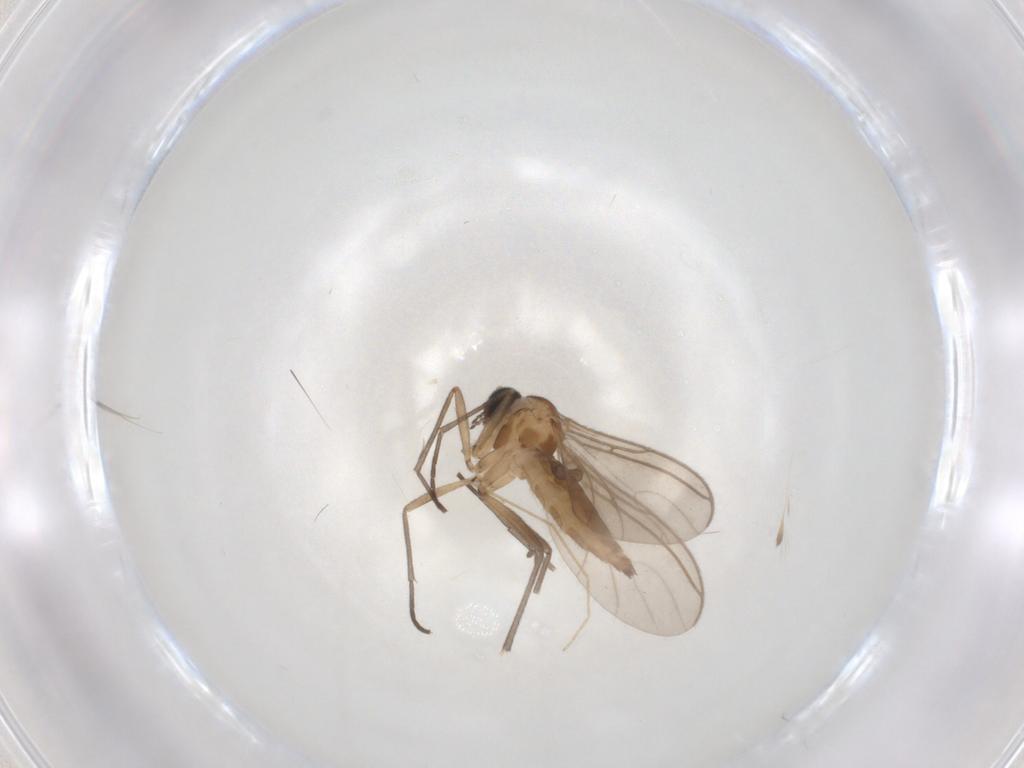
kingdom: Animalia
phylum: Arthropoda
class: Insecta
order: Diptera
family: Sciaridae
